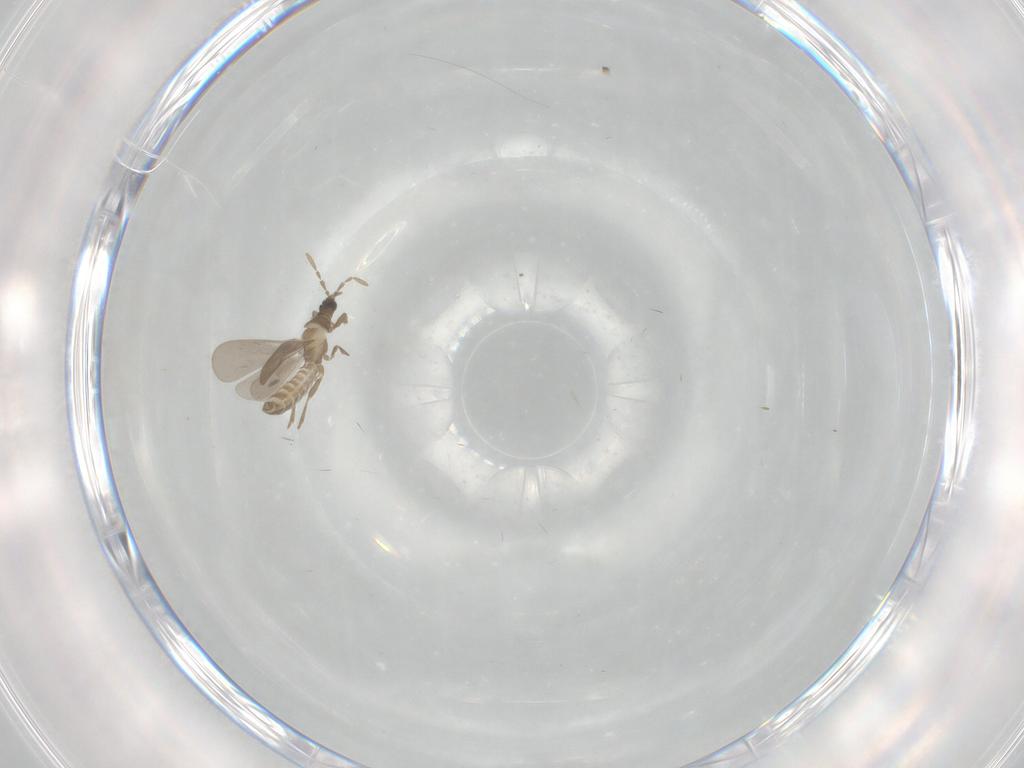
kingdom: Animalia
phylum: Arthropoda
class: Insecta
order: Hemiptera
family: Enicocephalidae
